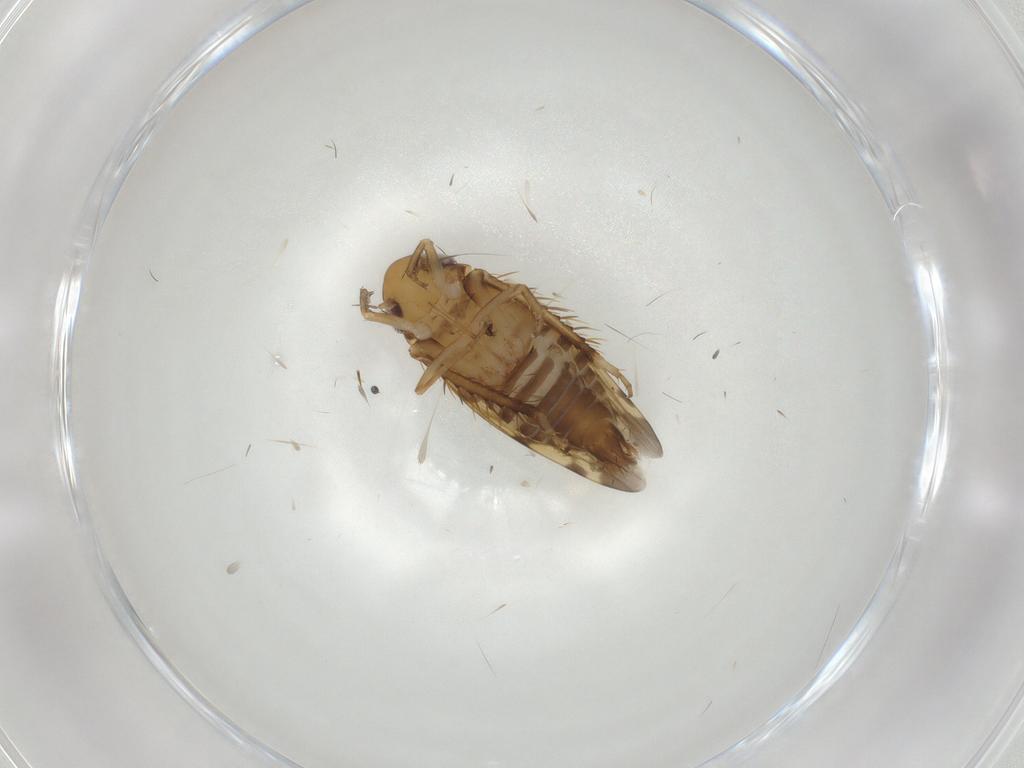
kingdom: Animalia
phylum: Arthropoda
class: Insecta
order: Hemiptera
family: Cicadellidae
